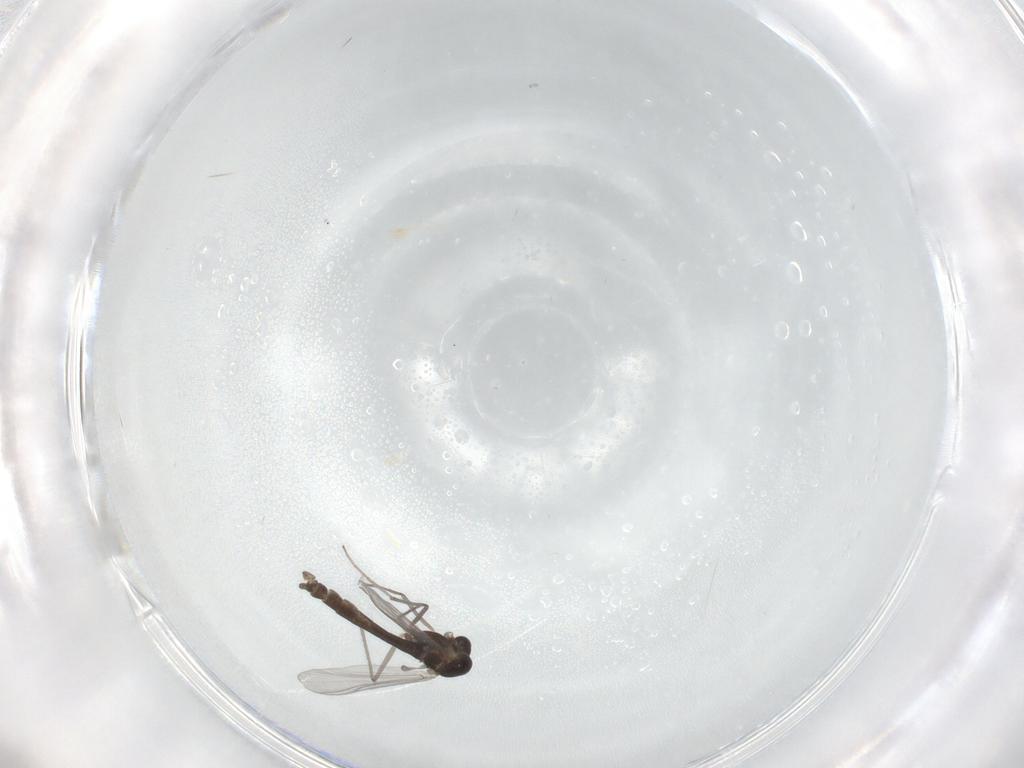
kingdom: Animalia
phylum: Arthropoda
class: Insecta
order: Diptera
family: Chironomidae
